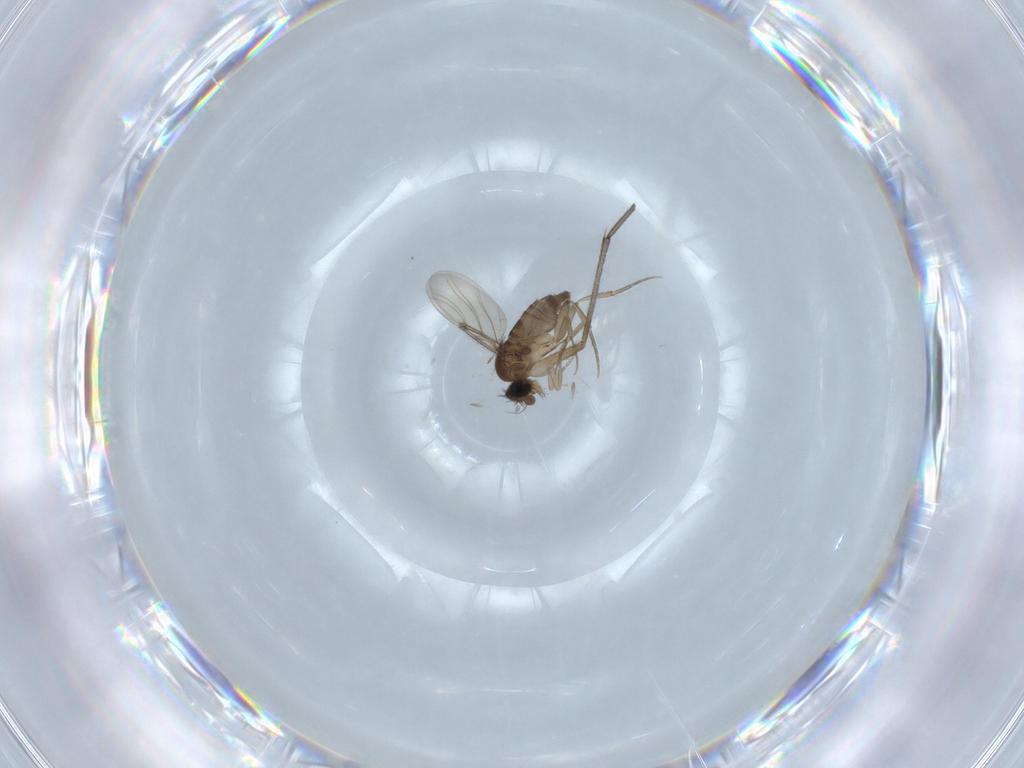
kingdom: Animalia
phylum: Arthropoda
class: Insecta
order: Diptera
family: Phoridae
